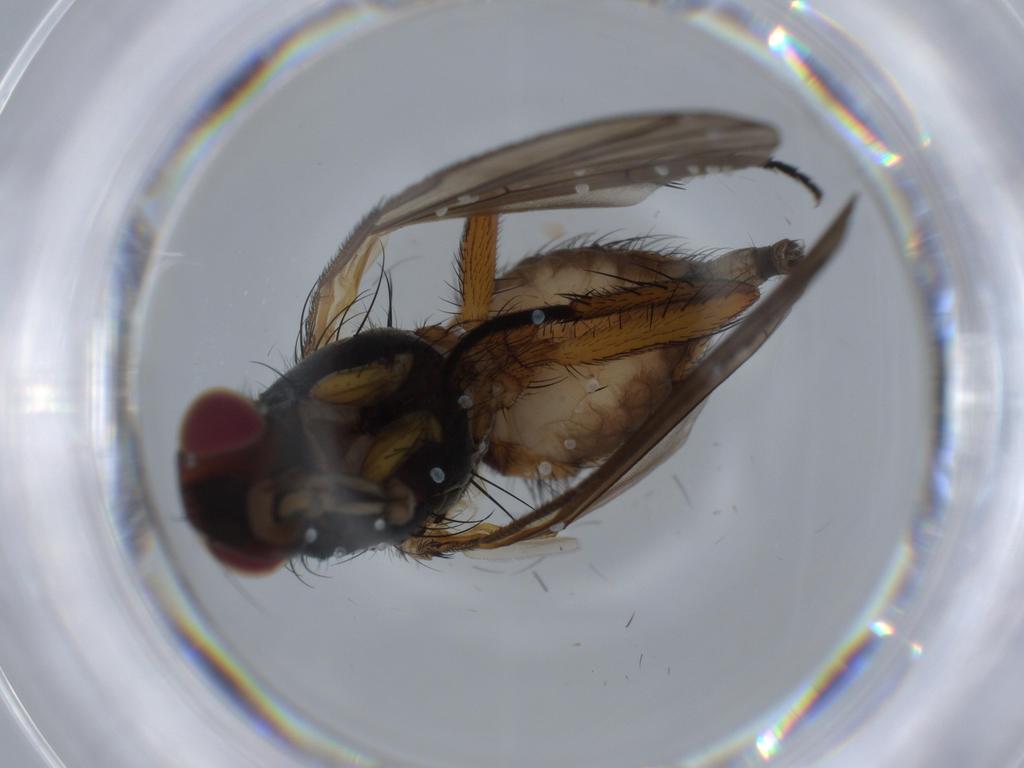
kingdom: Animalia
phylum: Arthropoda
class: Insecta
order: Diptera
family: Anthomyiidae
